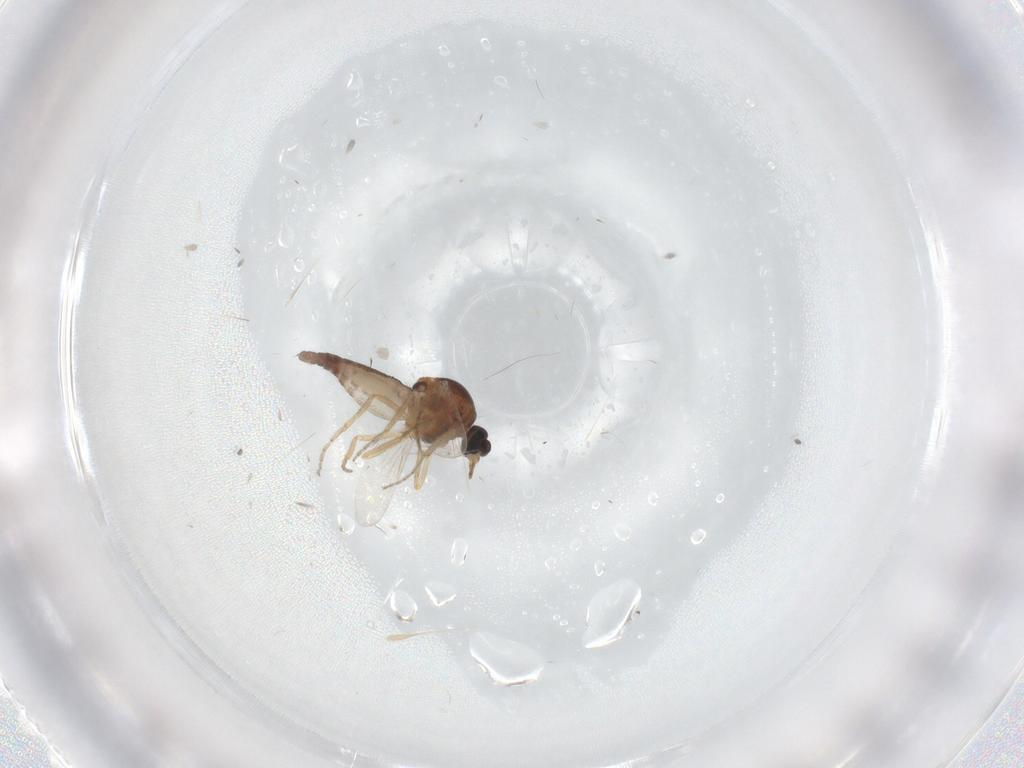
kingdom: Animalia
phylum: Arthropoda
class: Insecta
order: Diptera
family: Ceratopogonidae
